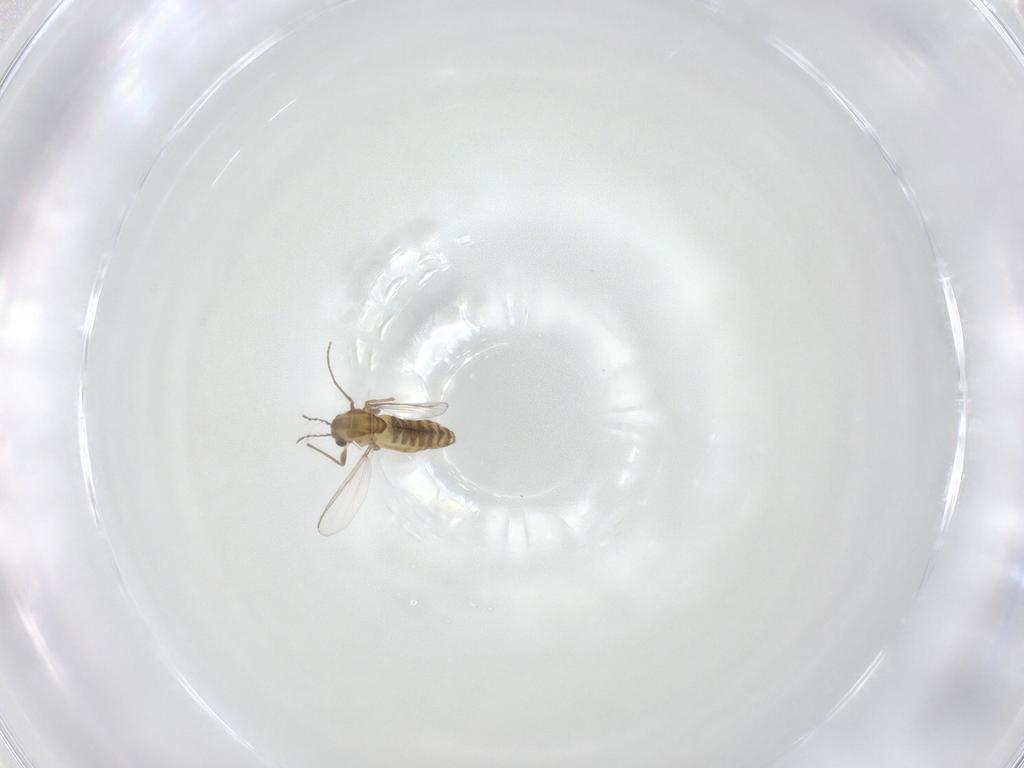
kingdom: Animalia
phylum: Arthropoda
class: Insecta
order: Diptera
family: Chironomidae
